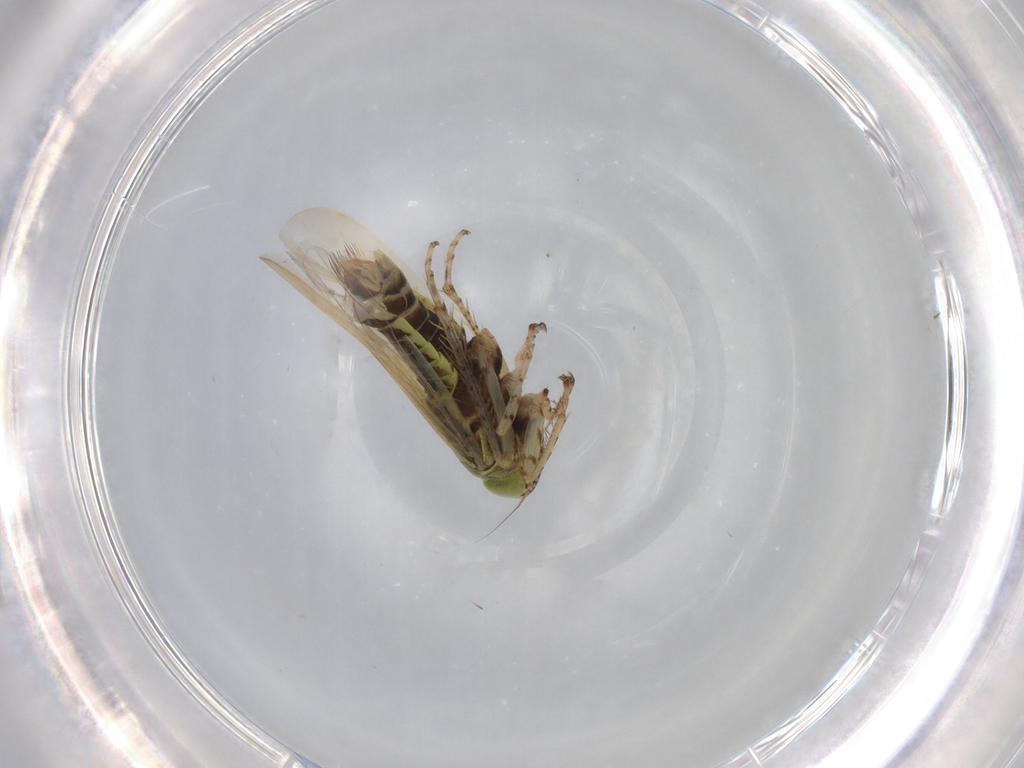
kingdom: Animalia
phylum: Arthropoda
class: Insecta
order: Hemiptera
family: Cicadellidae
